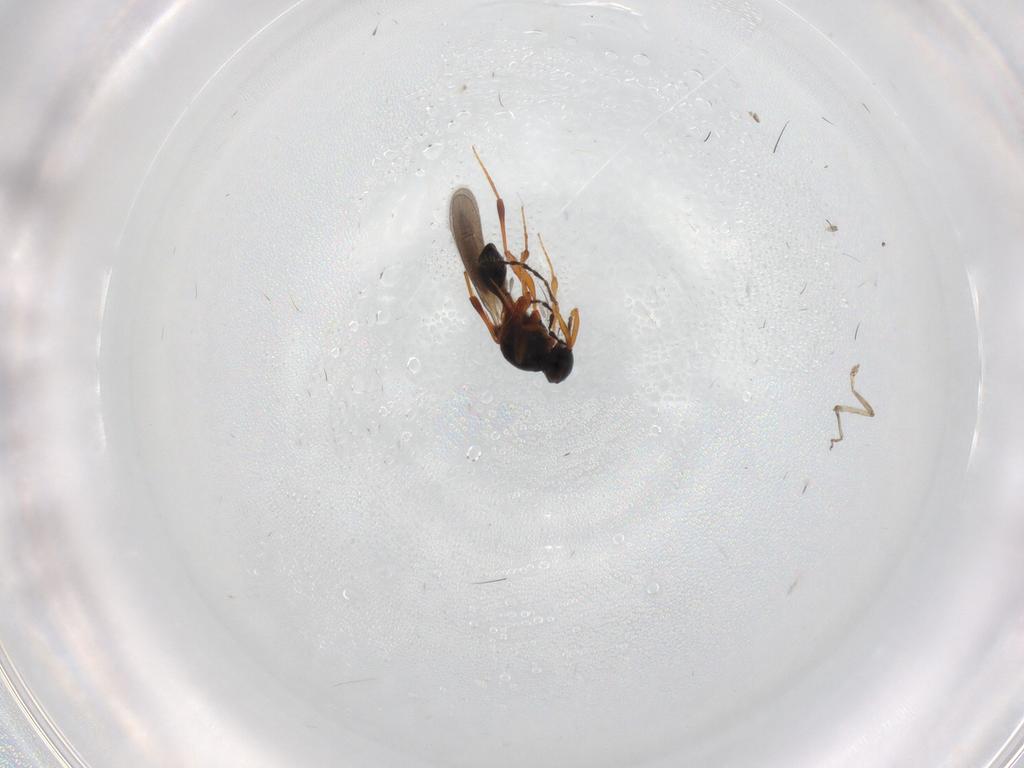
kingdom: Animalia
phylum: Arthropoda
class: Insecta
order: Hymenoptera
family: Platygastridae
